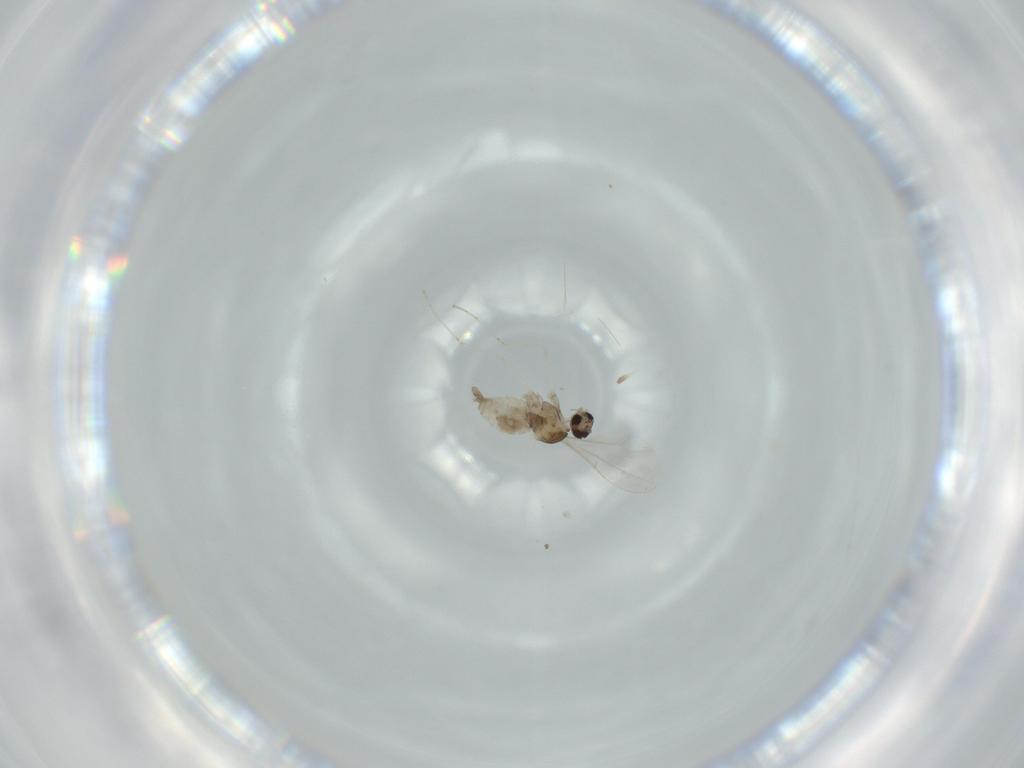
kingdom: Animalia
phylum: Arthropoda
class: Insecta
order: Diptera
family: Cecidomyiidae
